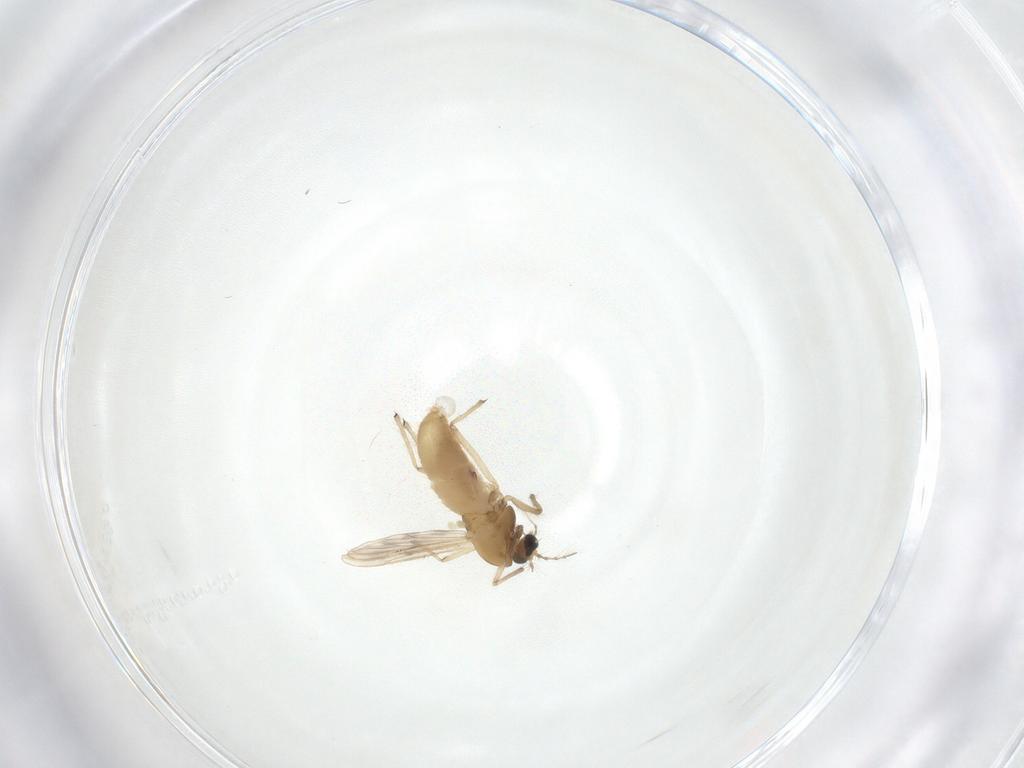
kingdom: Animalia
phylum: Arthropoda
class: Insecta
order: Diptera
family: Chironomidae
